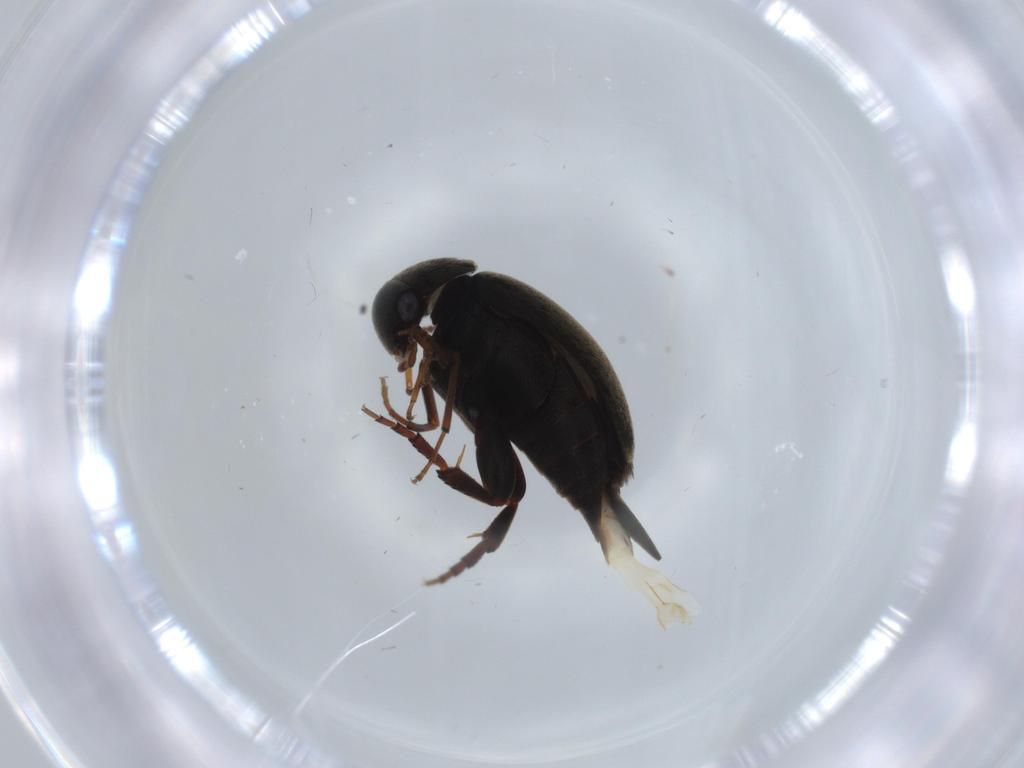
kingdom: Animalia
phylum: Arthropoda
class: Insecta
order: Coleoptera
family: Mordellidae
